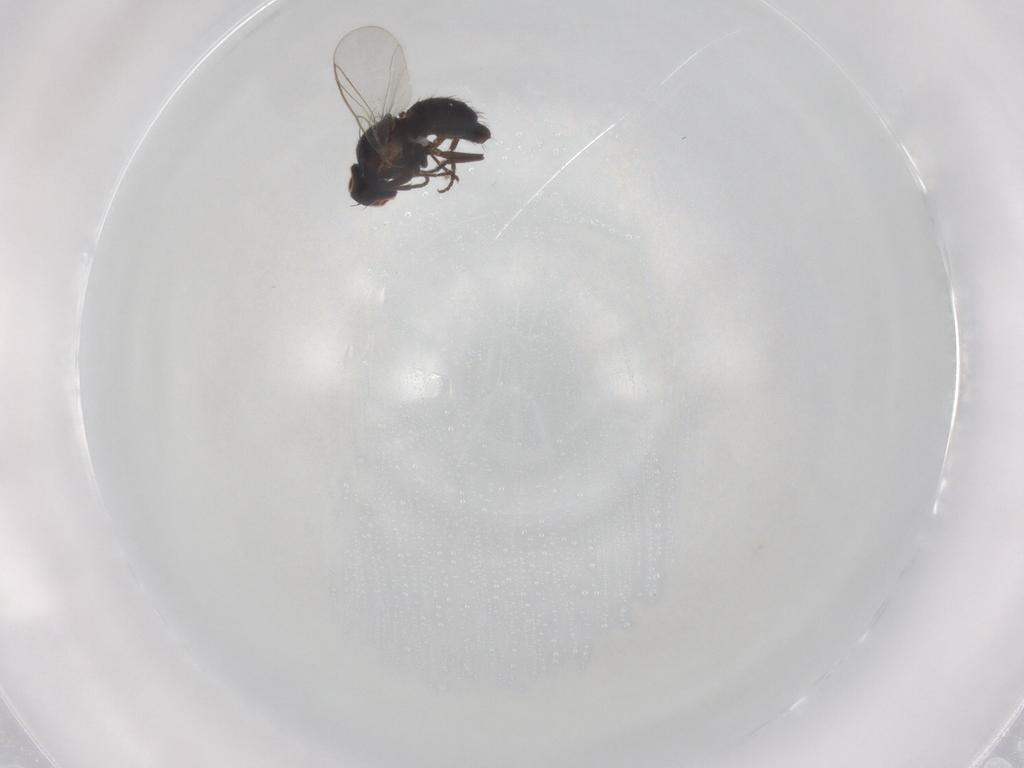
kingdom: Animalia
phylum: Arthropoda
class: Insecta
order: Diptera
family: Agromyzidae
